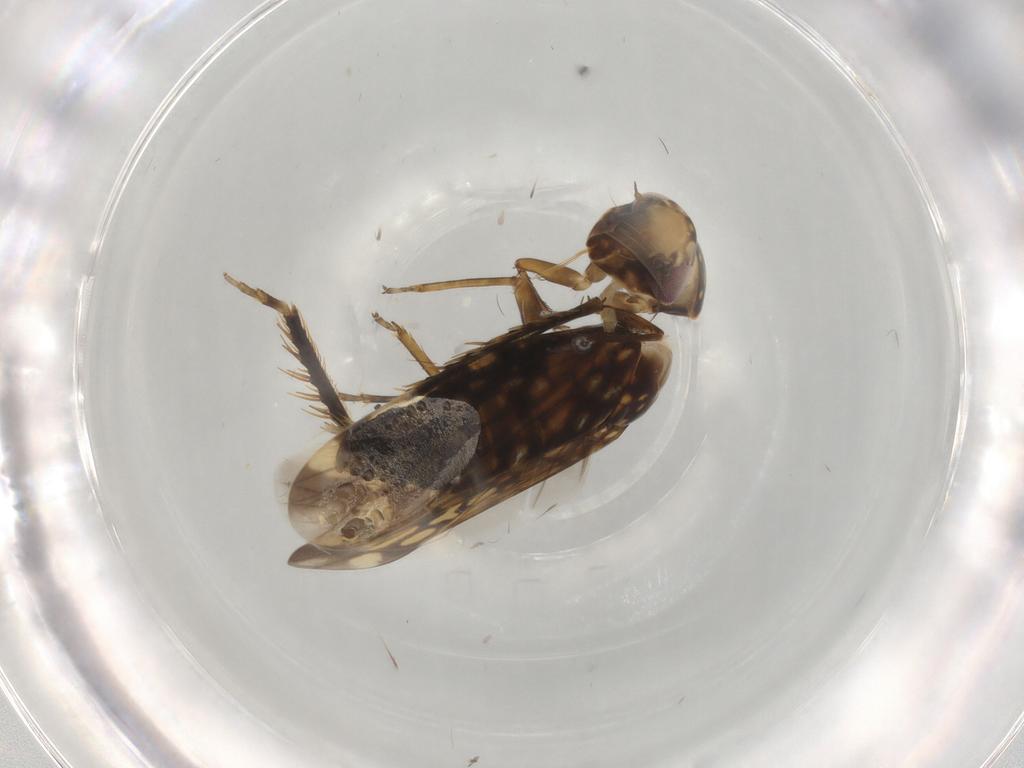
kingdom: Animalia
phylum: Arthropoda
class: Insecta
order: Hemiptera
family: Cicadellidae
